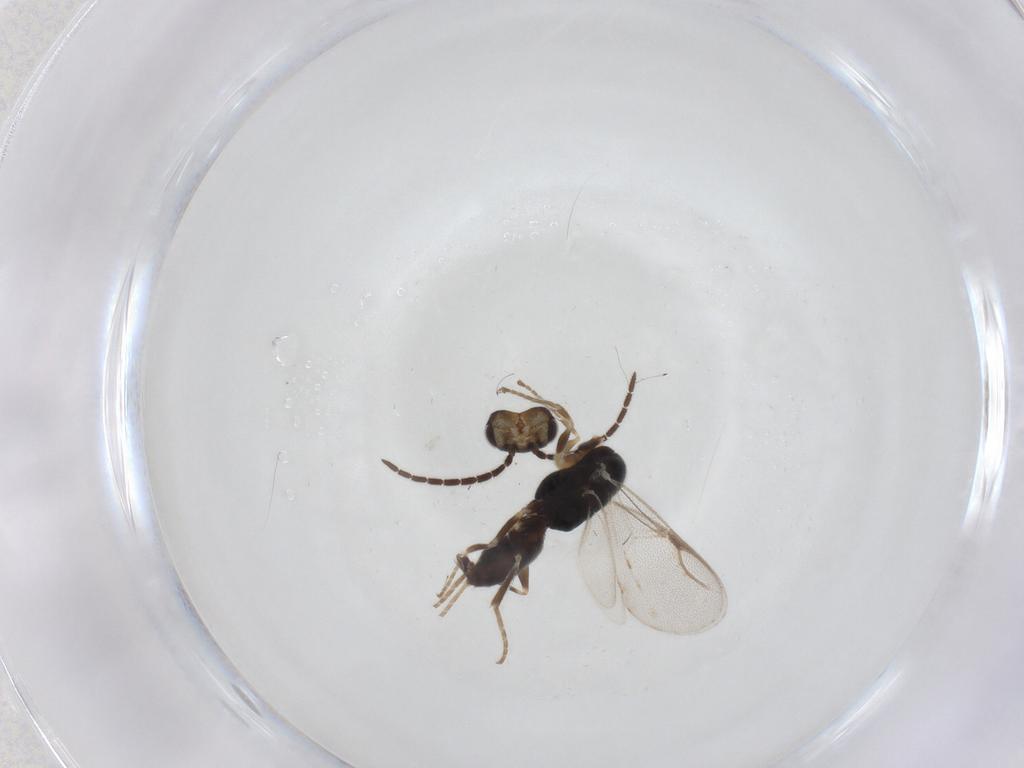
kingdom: Animalia
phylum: Arthropoda
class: Insecta
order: Hymenoptera
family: Dryinidae
